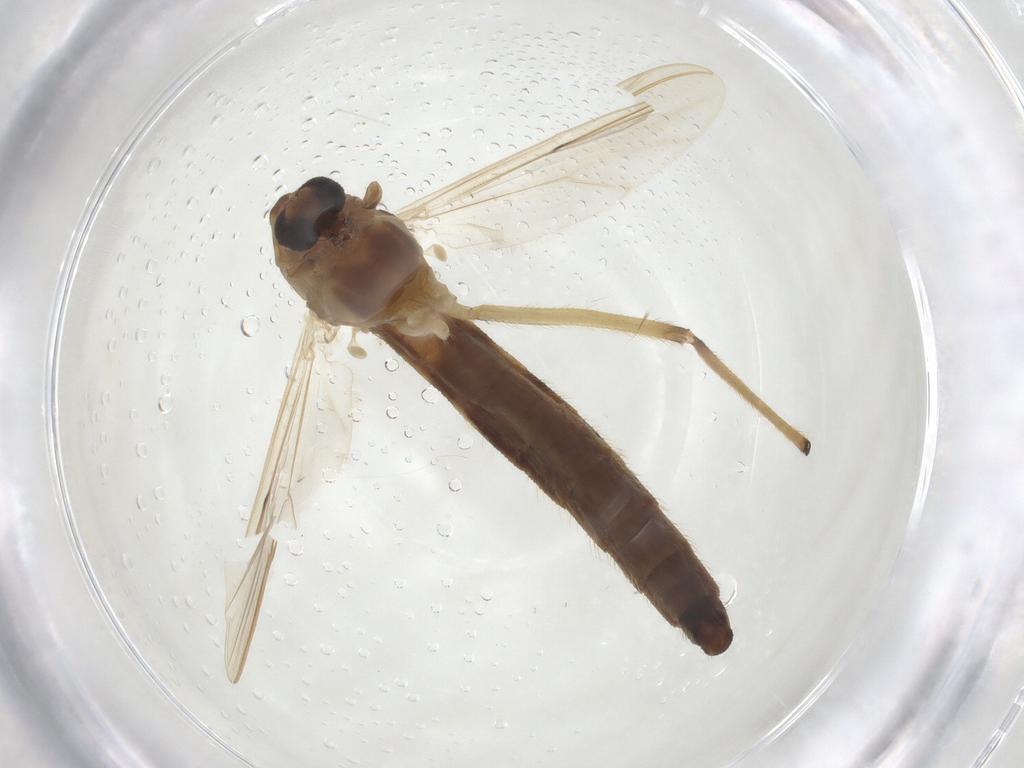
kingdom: Animalia
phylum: Arthropoda
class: Insecta
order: Diptera
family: Chironomidae
